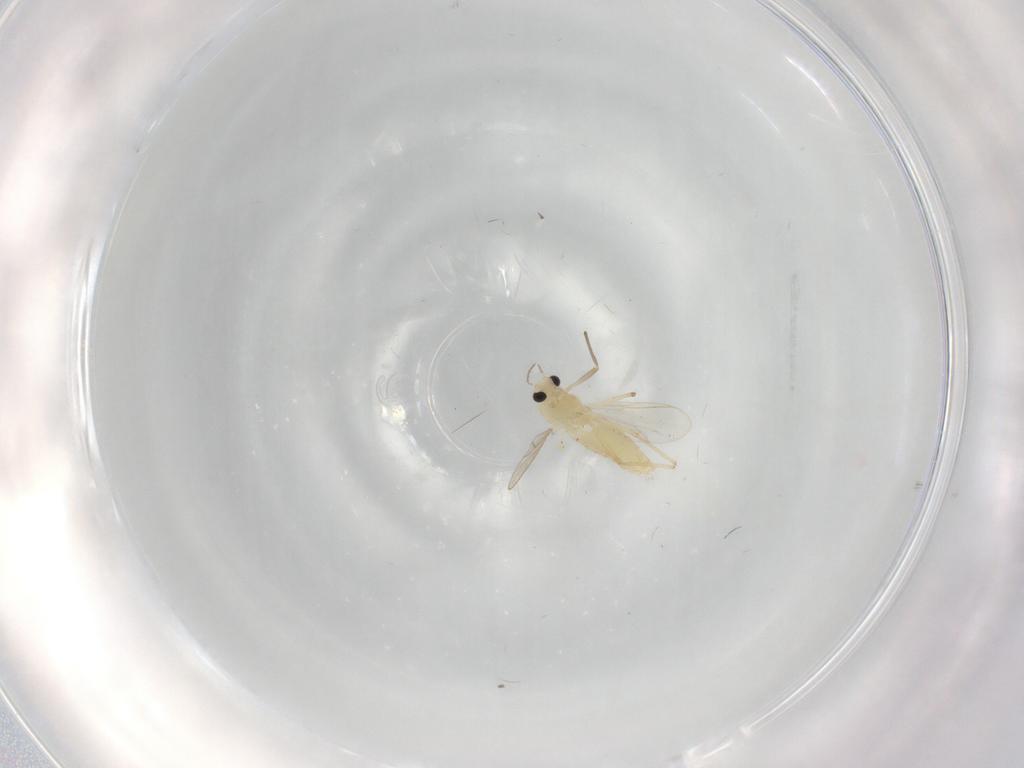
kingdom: Animalia
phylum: Arthropoda
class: Insecta
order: Diptera
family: Chironomidae
